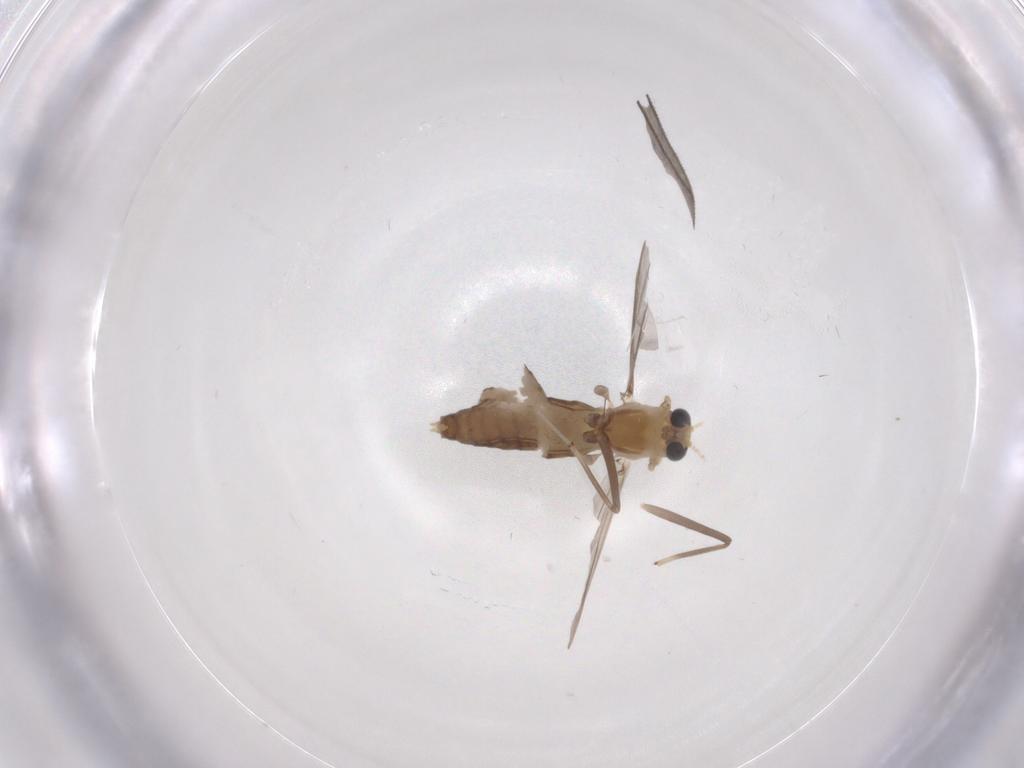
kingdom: Animalia
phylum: Arthropoda
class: Insecta
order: Diptera
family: Chironomidae
